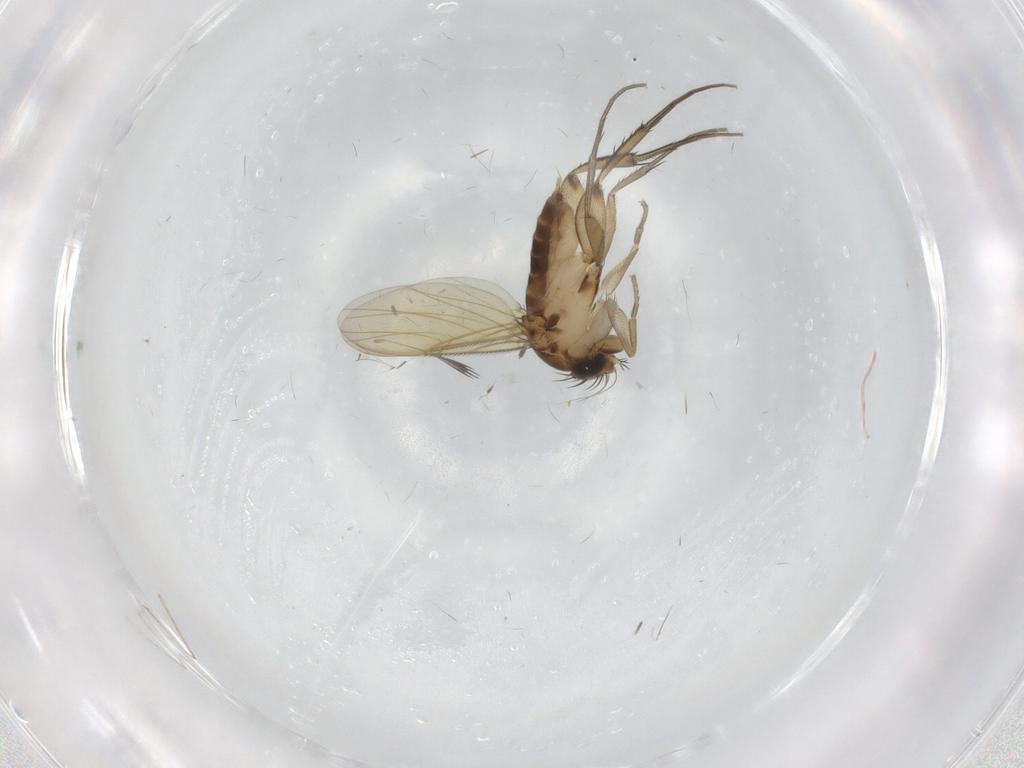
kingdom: Animalia
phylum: Arthropoda
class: Insecta
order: Diptera
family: Phoridae
